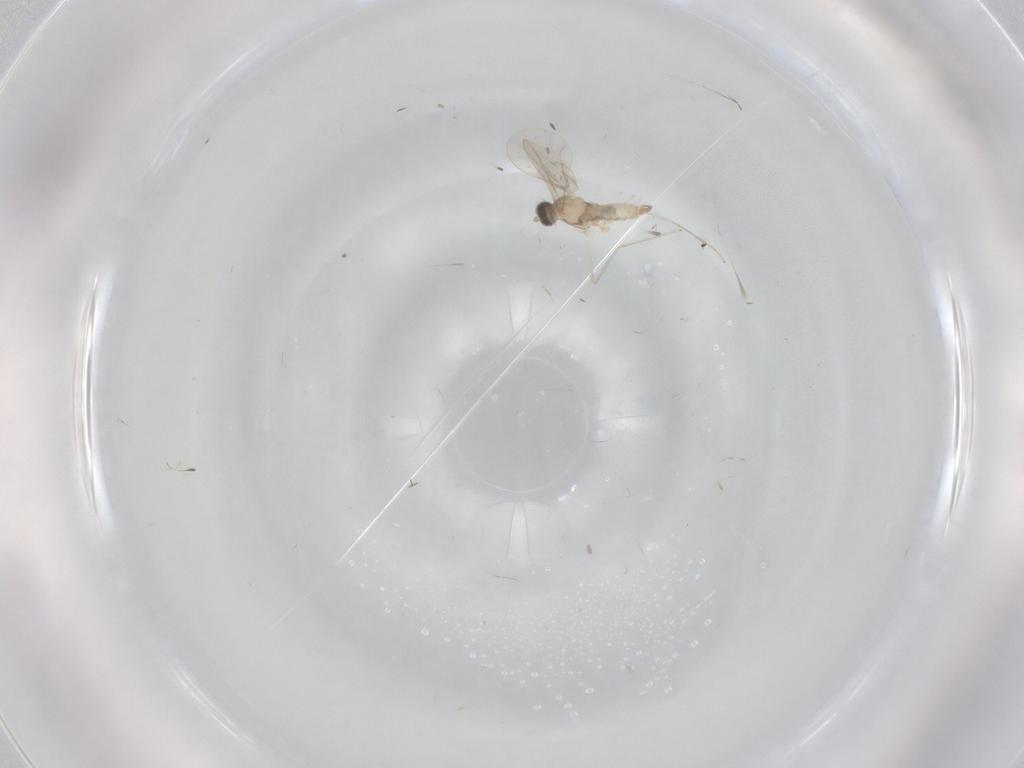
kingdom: Animalia
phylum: Arthropoda
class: Insecta
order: Diptera
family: Cecidomyiidae
